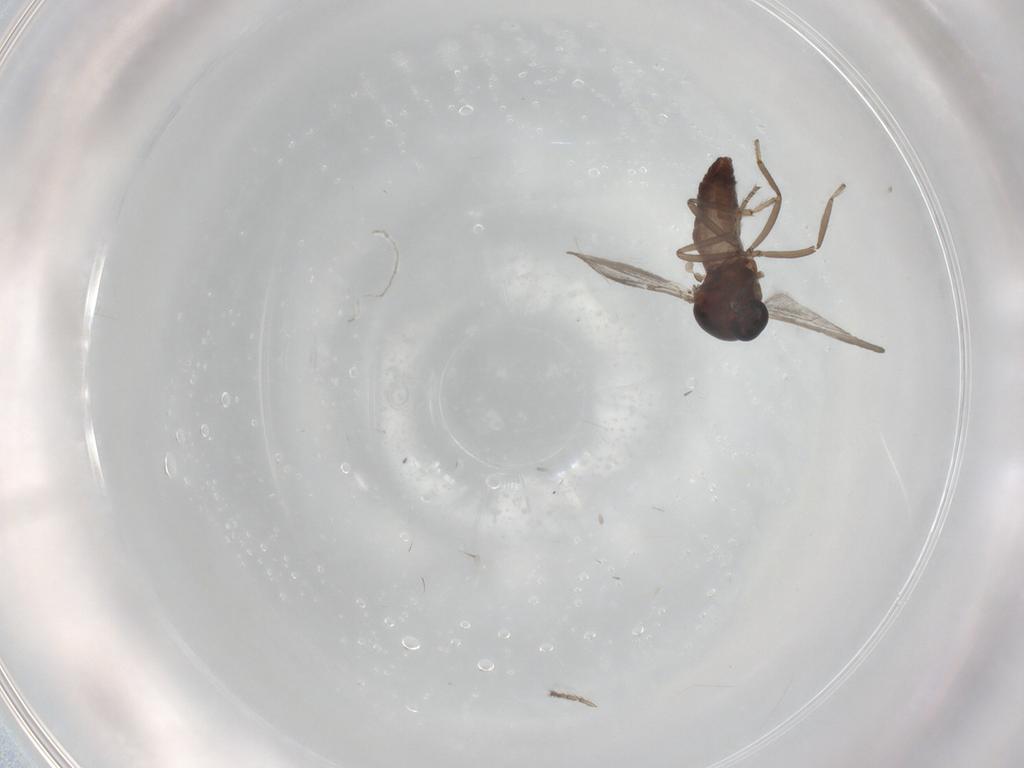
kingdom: Animalia
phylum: Arthropoda
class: Insecta
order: Diptera
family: Ceratopogonidae
